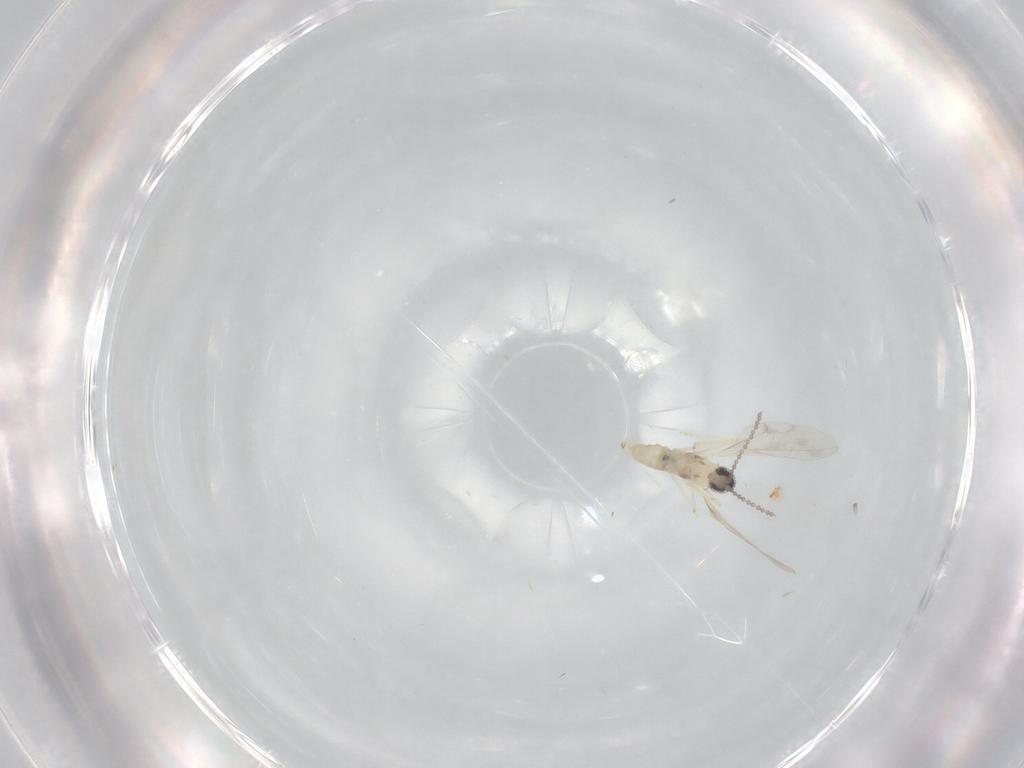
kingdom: Animalia
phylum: Arthropoda
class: Insecta
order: Diptera
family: Cecidomyiidae
